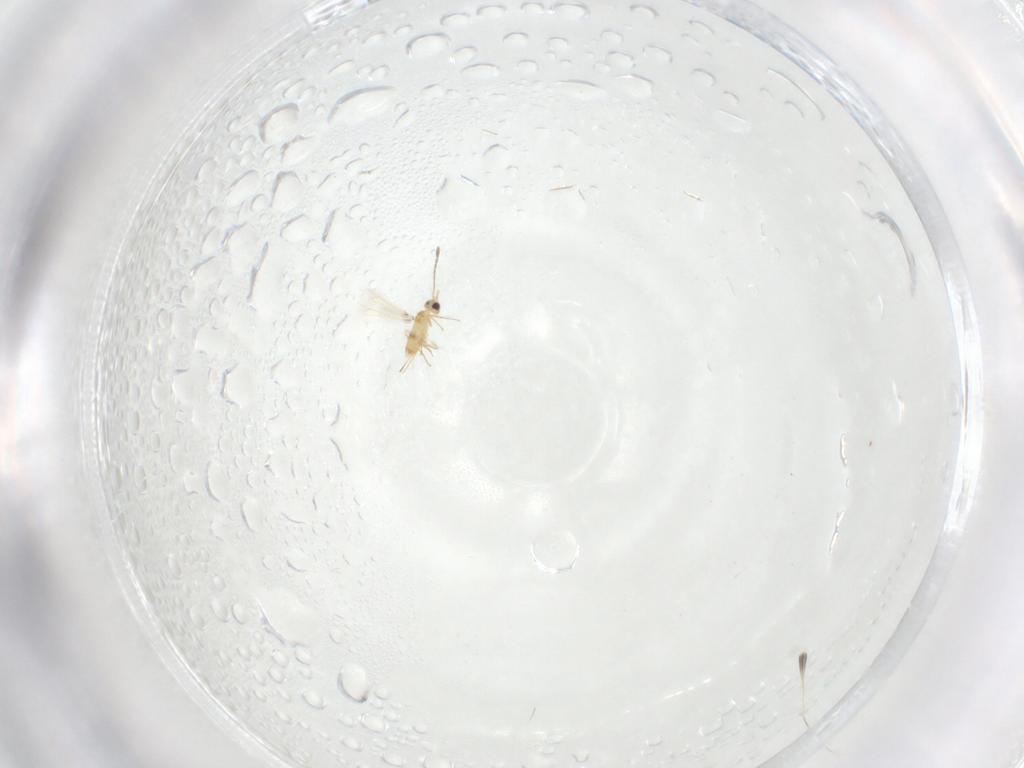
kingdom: Animalia
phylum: Arthropoda
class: Insecta
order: Hymenoptera
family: Mymaridae
